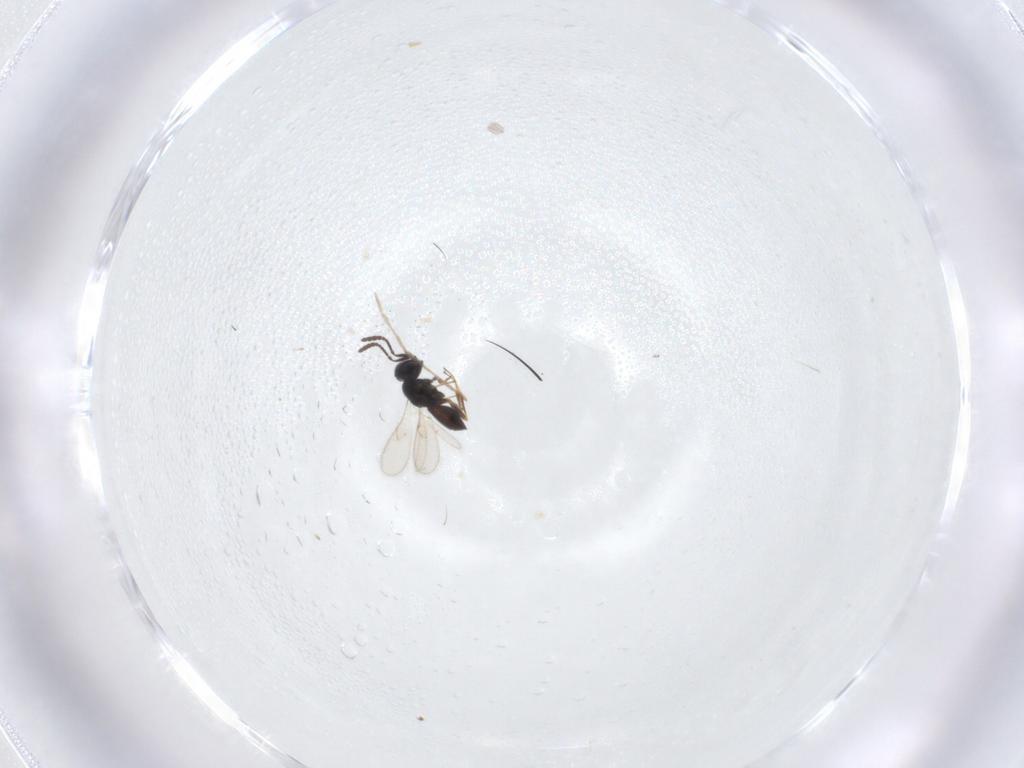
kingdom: Animalia
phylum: Arthropoda
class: Insecta
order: Hymenoptera
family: Scelionidae
